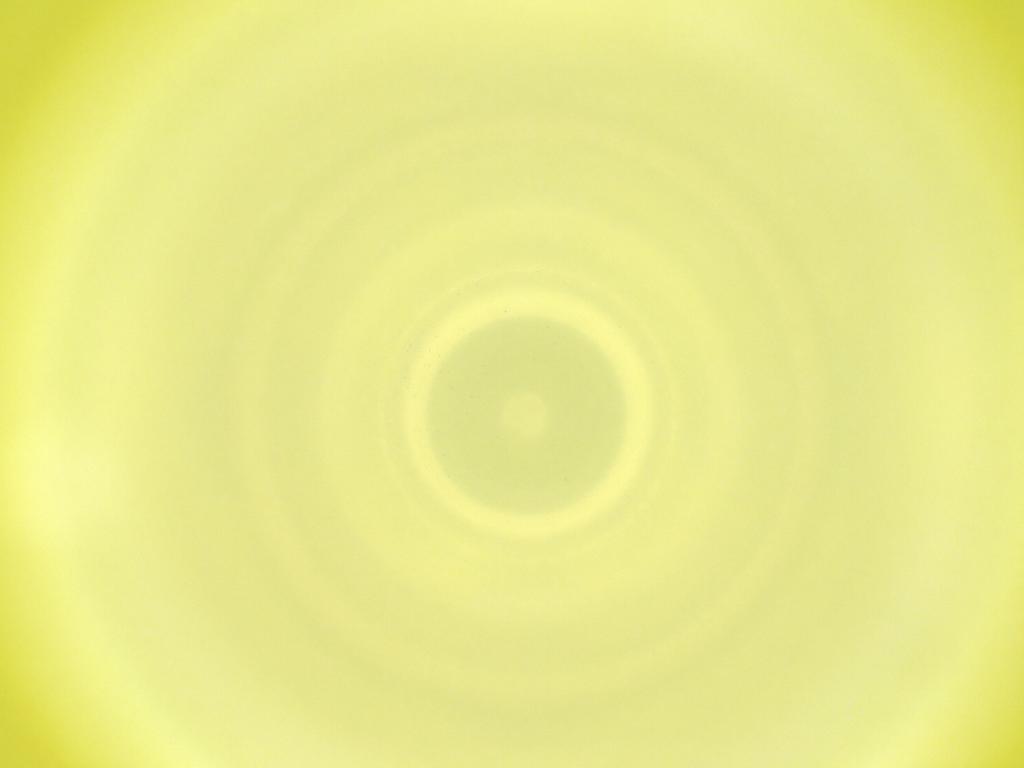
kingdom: Animalia
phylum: Arthropoda
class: Insecta
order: Diptera
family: Cecidomyiidae
